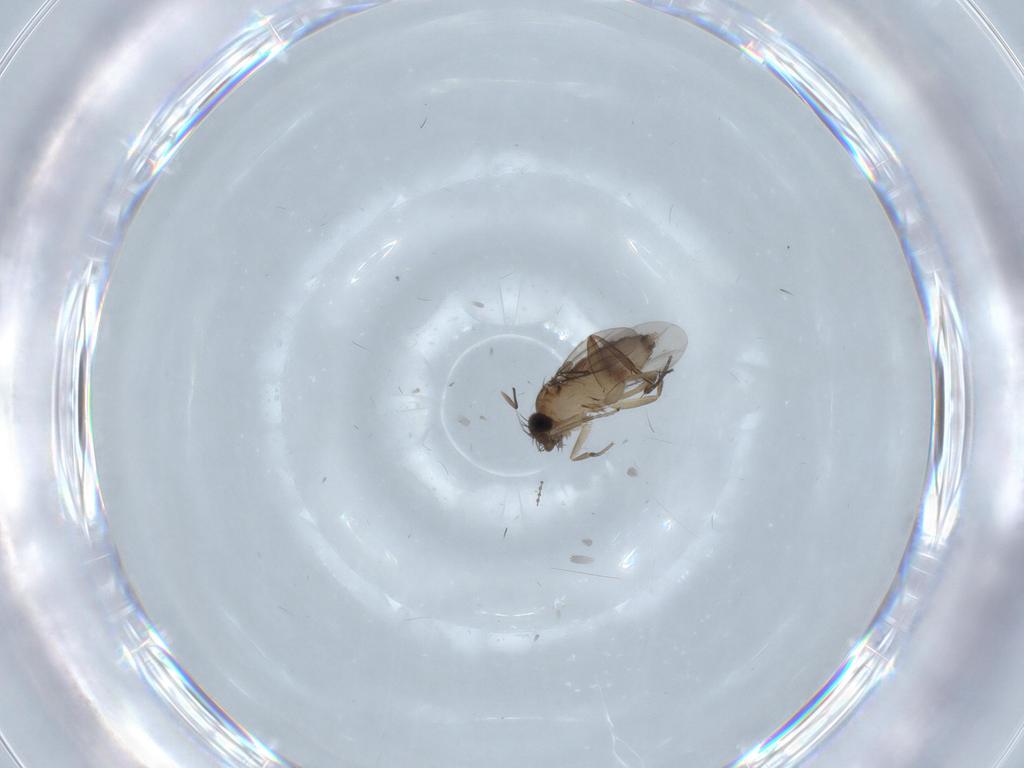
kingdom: Animalia
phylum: Arthropoda
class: Insecta
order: Diptera
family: Phoridae
